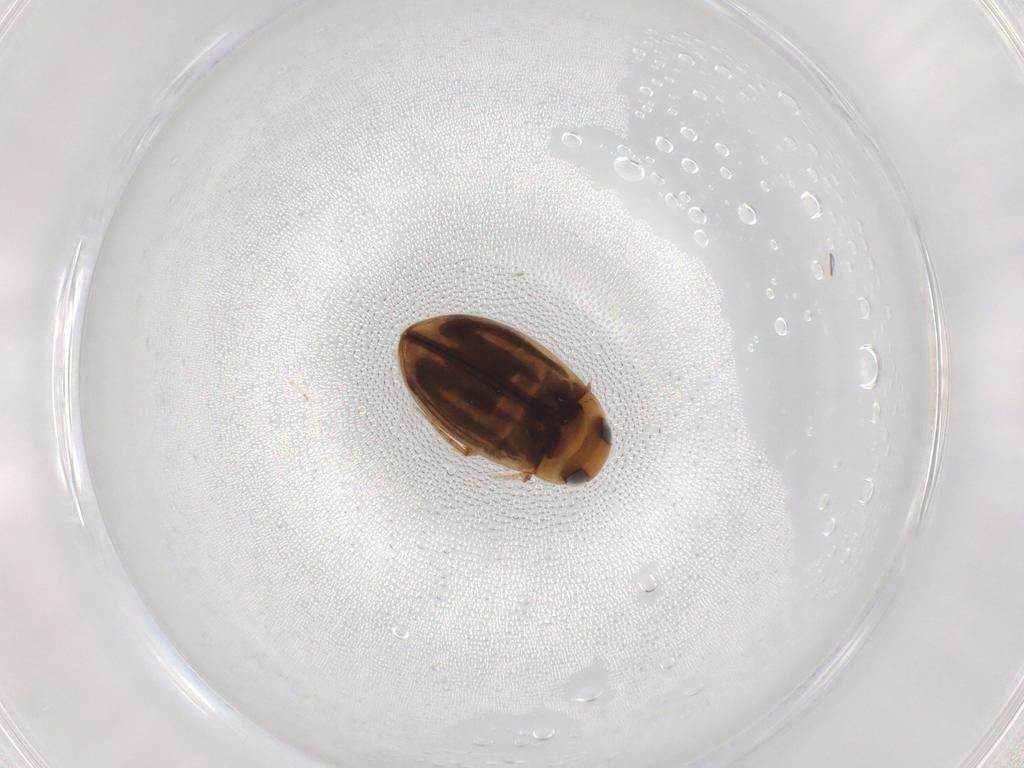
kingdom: Animalia
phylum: Arthropoda
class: Insecta
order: Coleoptera
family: Dytiscidae
